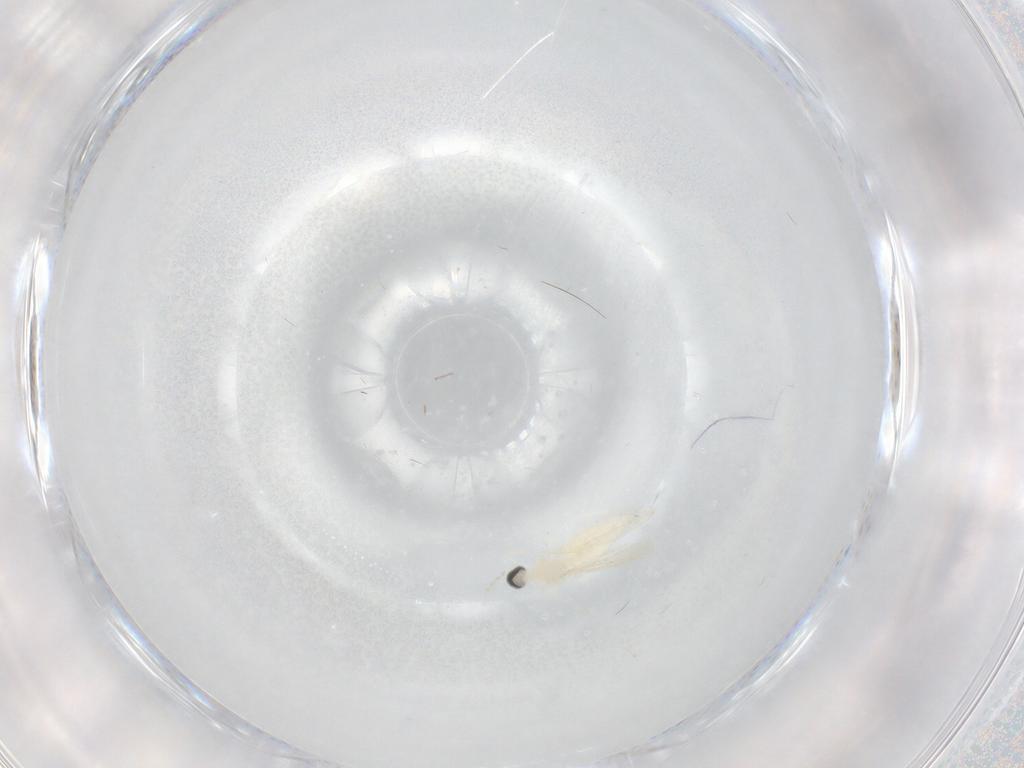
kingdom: Animalia
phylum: Arthropoda
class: Insecta
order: Diptera
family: Cecidomyiidae
